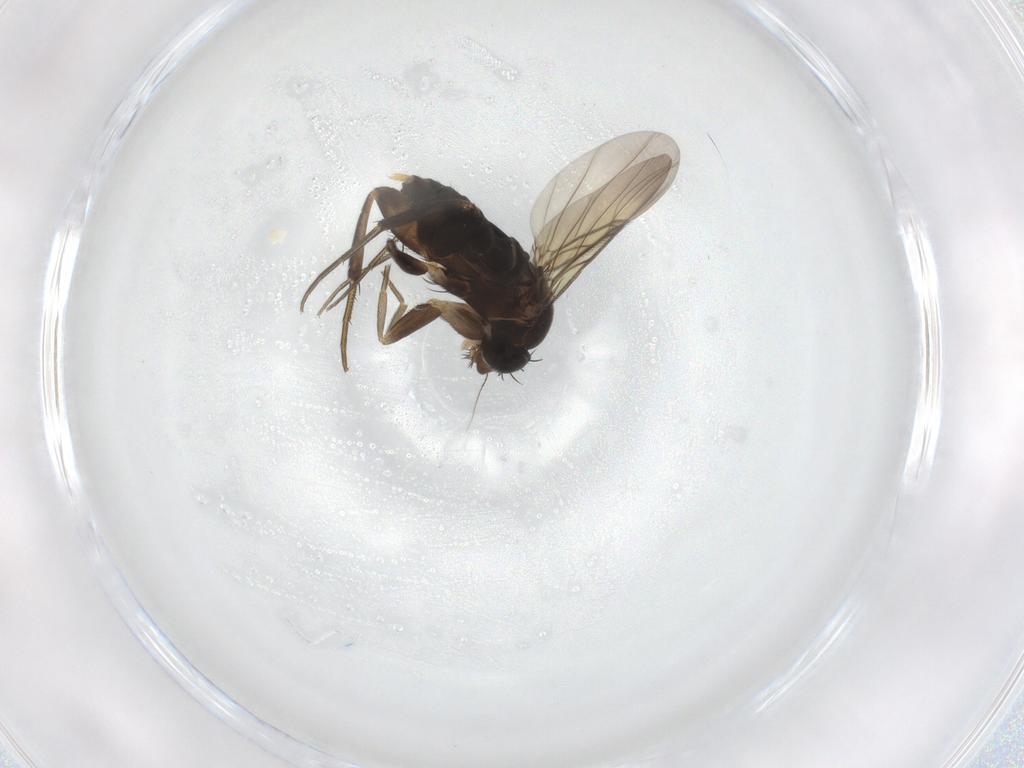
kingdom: Animalia
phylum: Arthropoda
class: Insecta
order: Diptera
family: Phoridae
